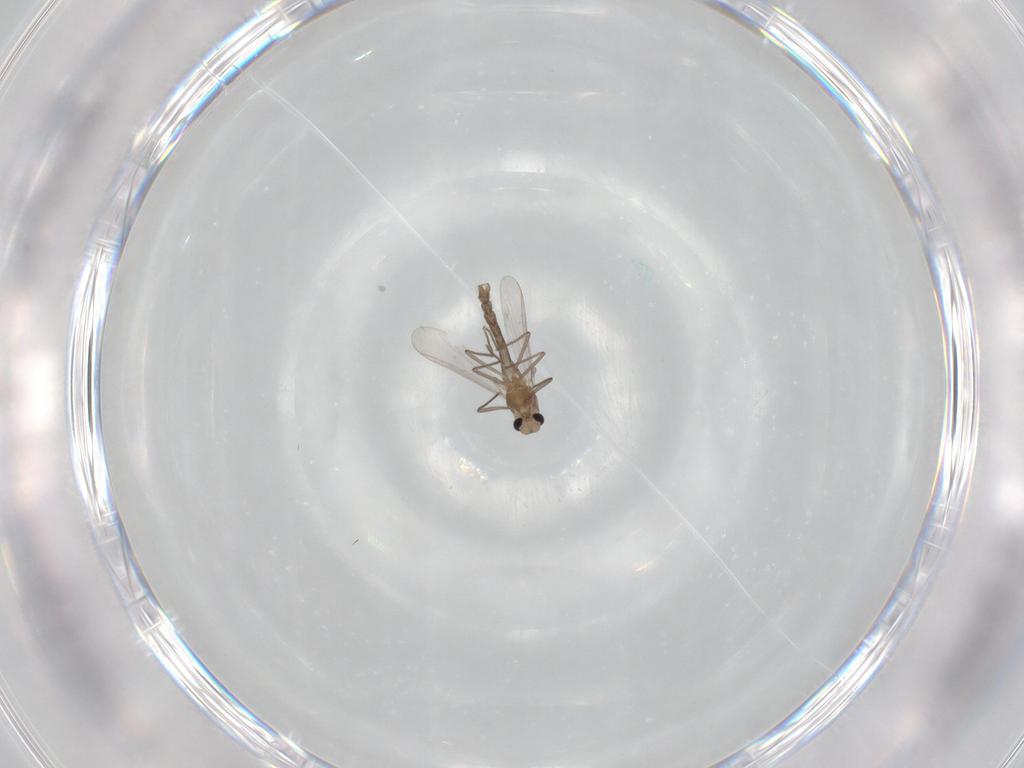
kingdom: Animalia
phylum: Arthropoda
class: Insecta
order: Diptera
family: Chironomidae
